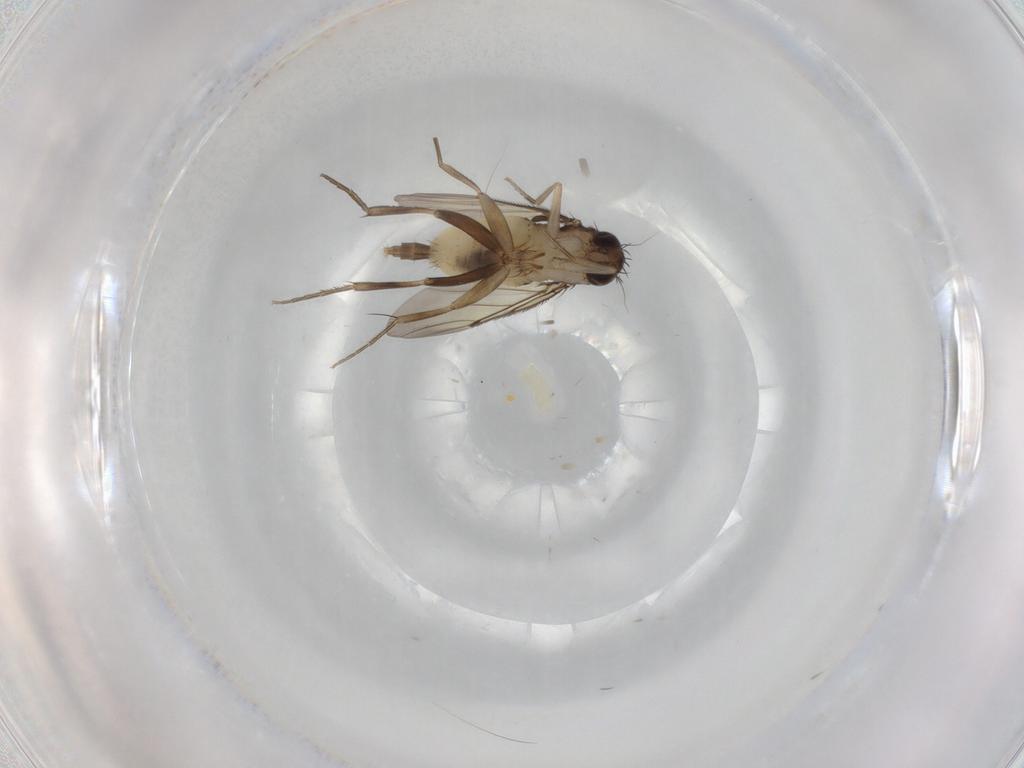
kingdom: Animalia
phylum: Arthropoda
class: Insecta
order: Diptera
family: Phoridae
